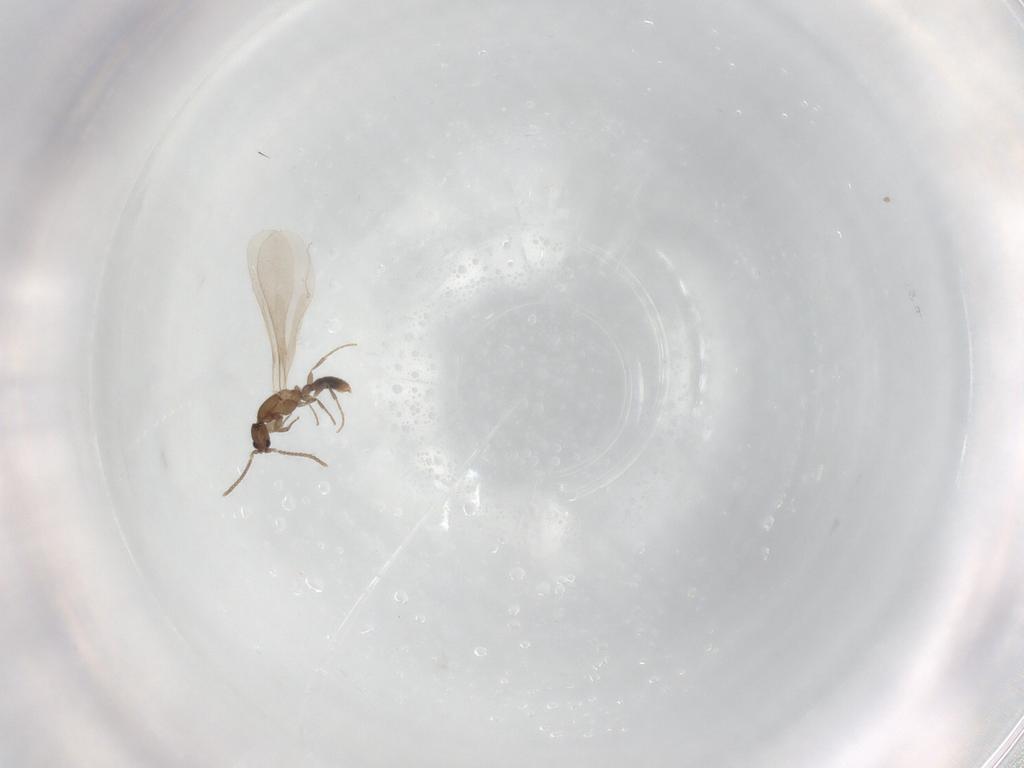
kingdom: Animalia
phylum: Arthropoda
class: Insecta
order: Hymenoptera
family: Formicidae
